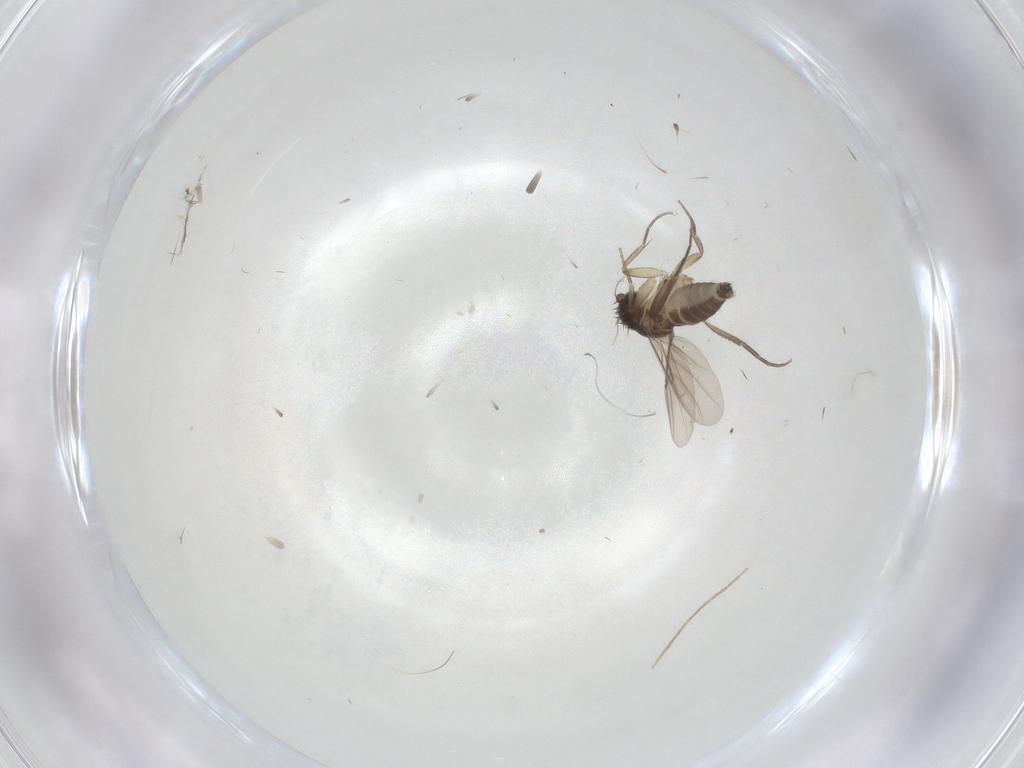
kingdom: Animalia
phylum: Arthropoda
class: Insecta
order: Diptera
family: Phoridae
